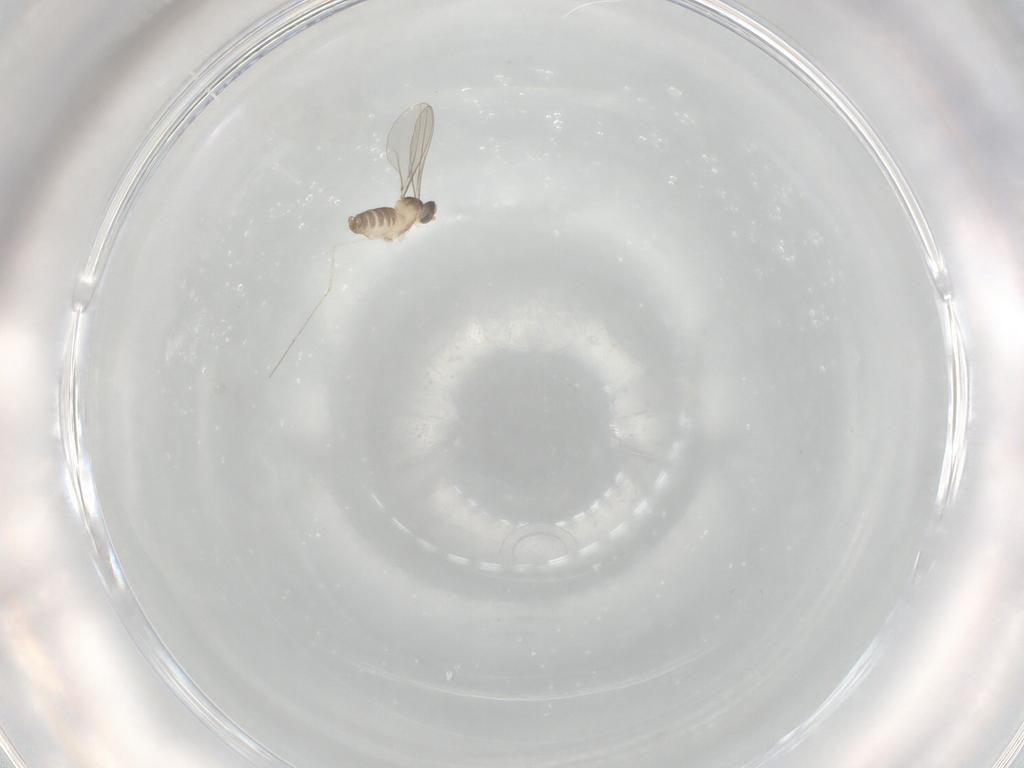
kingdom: Animalia
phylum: Arthropoda
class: Insecta
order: Diptera
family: Cecidomyiidae
